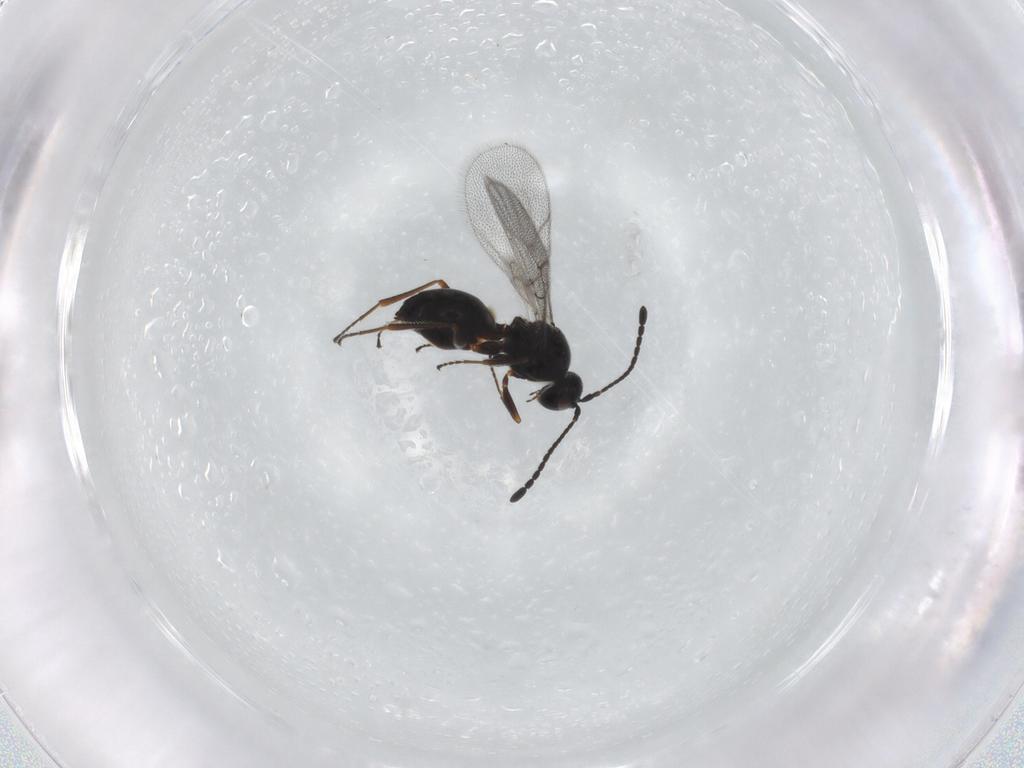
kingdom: Animalia
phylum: Arthropoda
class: Insecta
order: Hymenoptera
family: Figitidae
